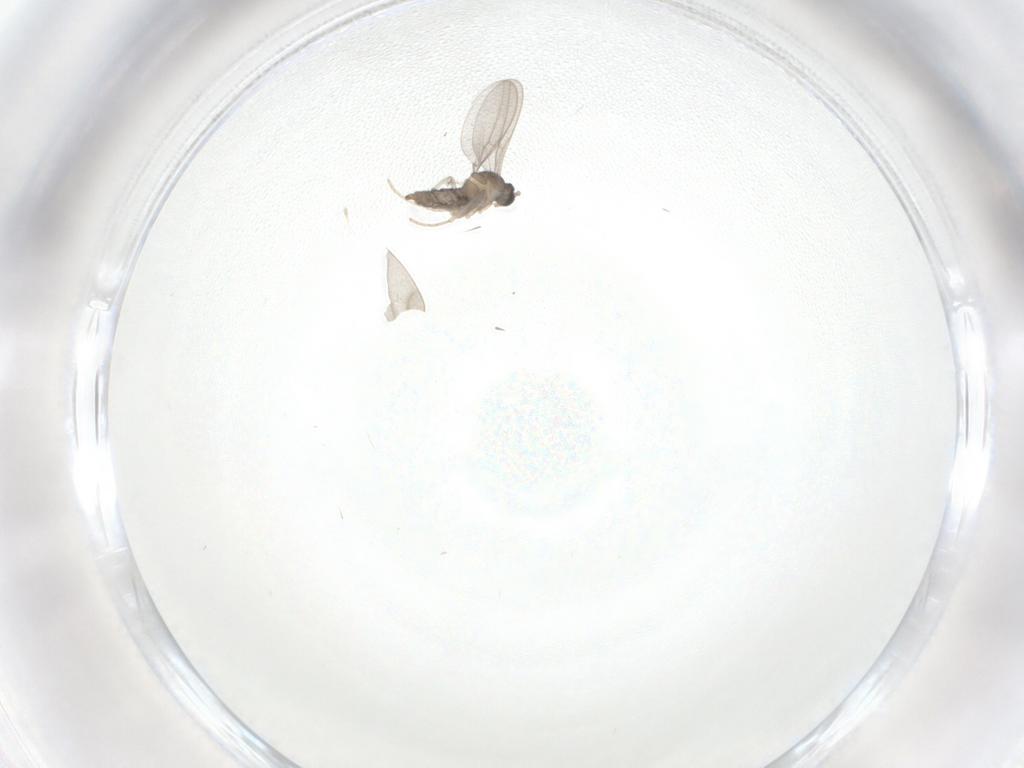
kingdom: Animalia
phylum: Arthropoda
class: Insecta
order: Diptera
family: Cecidomyiidae
